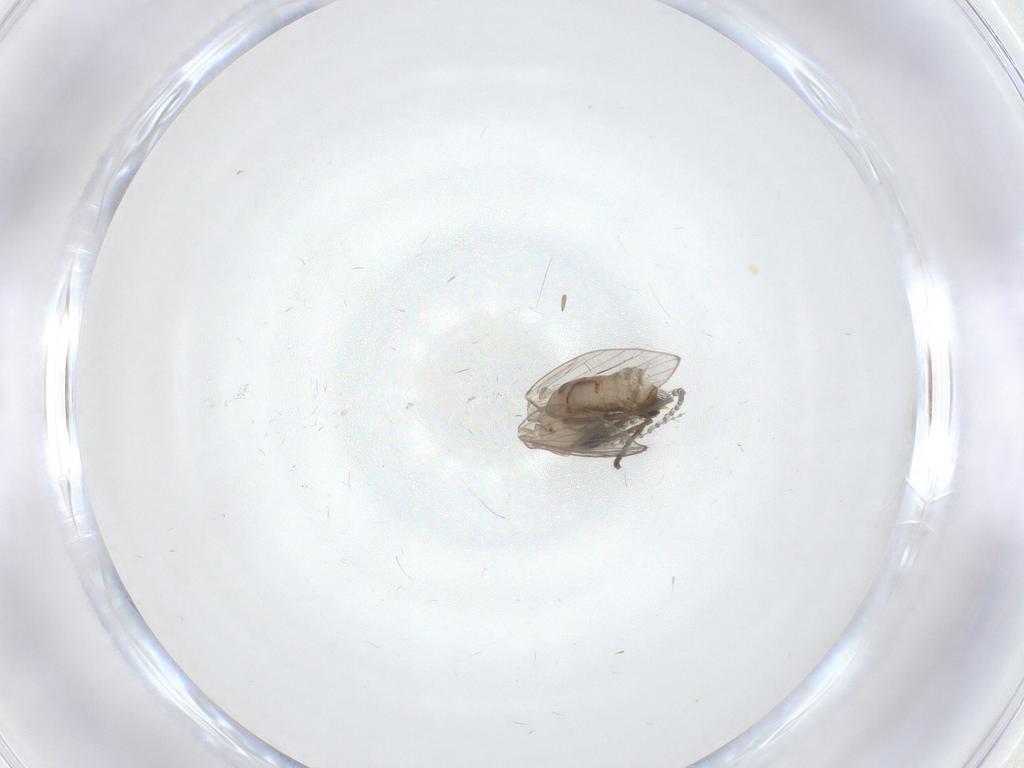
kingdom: Animalia
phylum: Arthropoda
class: Insecta
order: Diptera
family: Psychodidae
